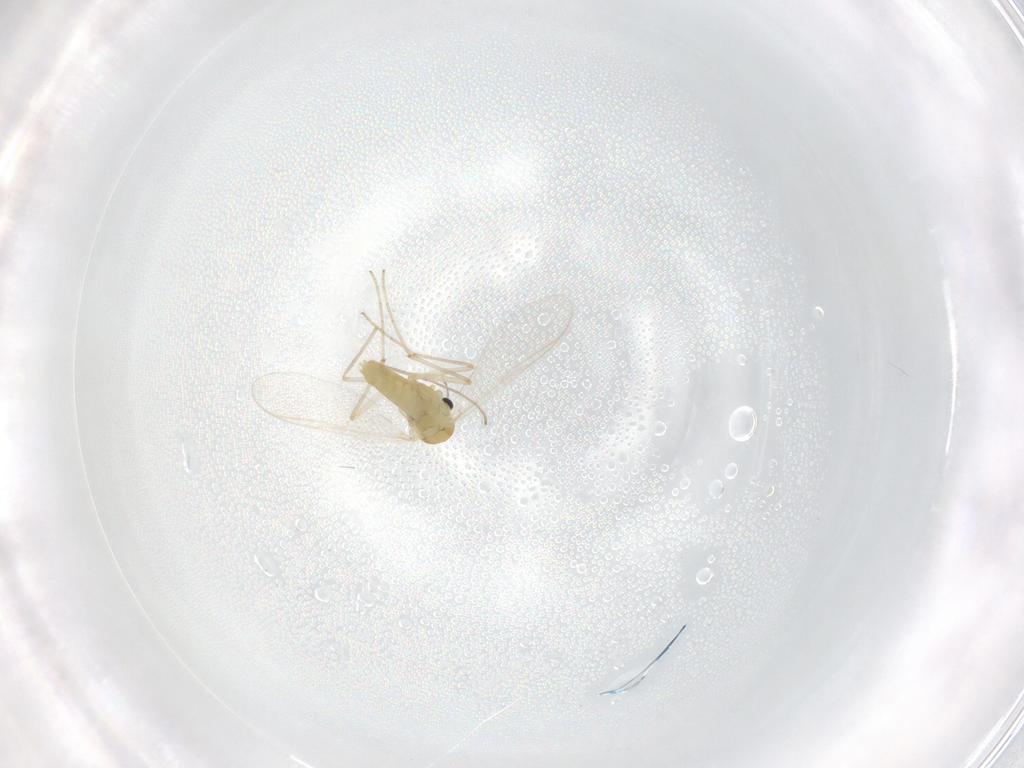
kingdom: Animalia
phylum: Arthropoda
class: Insecta
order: Diptera
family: Chironomidae
